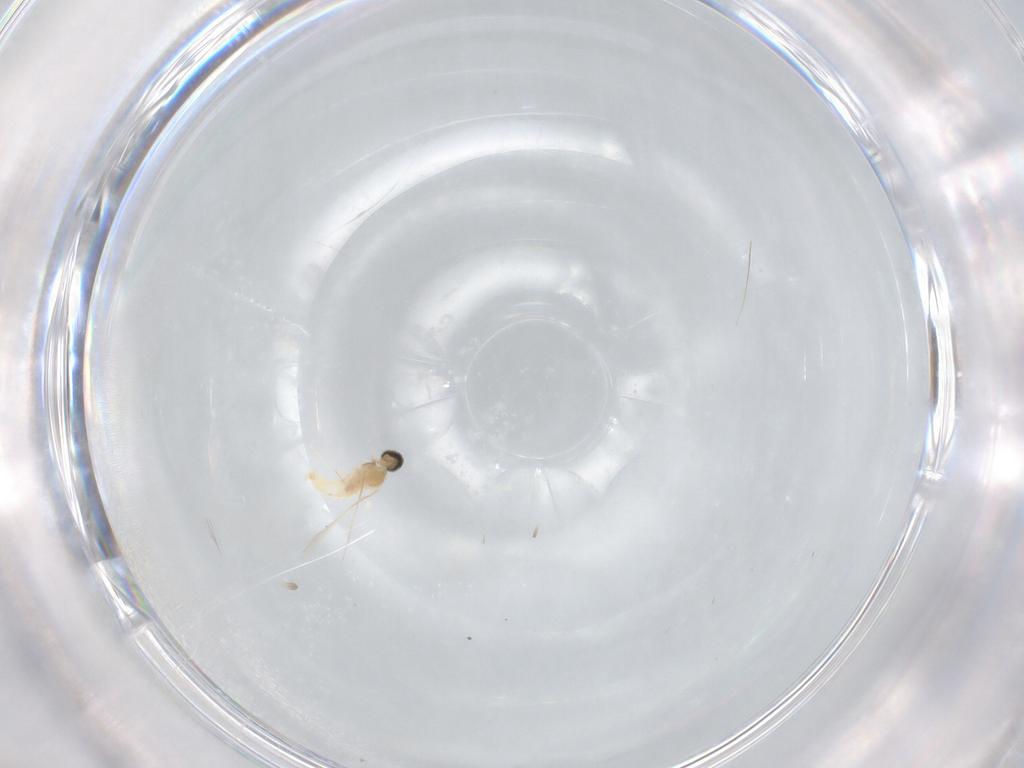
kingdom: Animalia
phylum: Arthropoda
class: Insecta
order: Diptera
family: Cecidomyiidae
